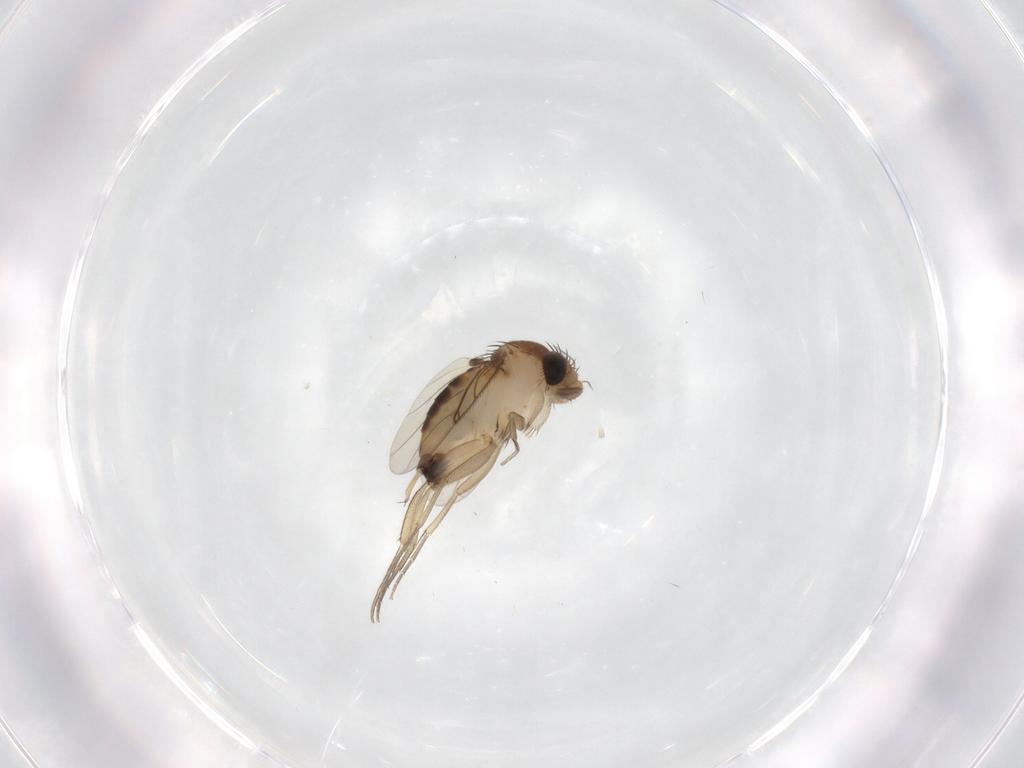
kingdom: Animalia
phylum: Arthropoda
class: Insecta
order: Diptera
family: Phoridae
